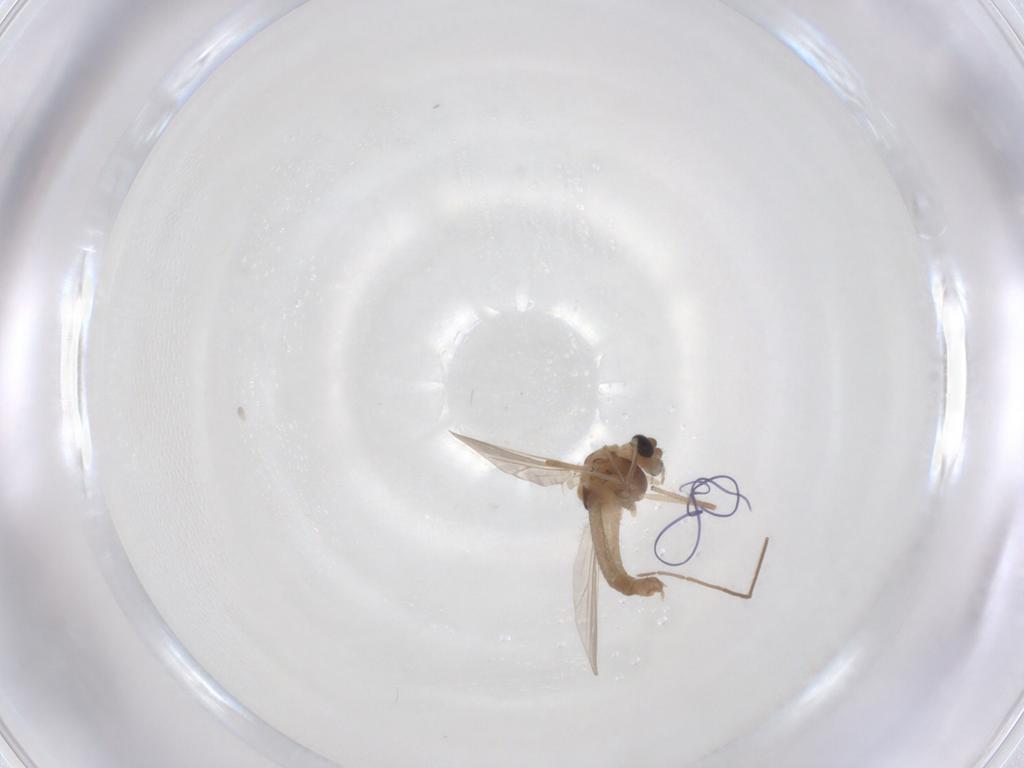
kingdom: Animalia
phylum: Arthropoda
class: Insecta
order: Diptera
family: Chironomidae
